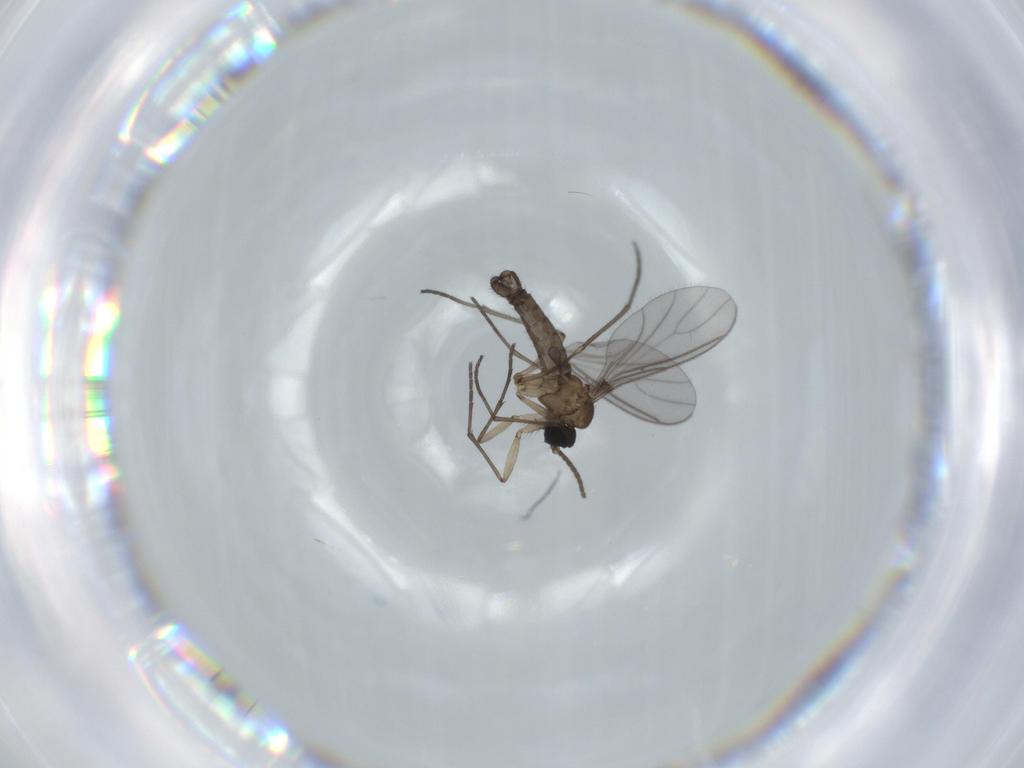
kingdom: Animalia
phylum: Arthropoda
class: Insecta
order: Diptera
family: Sciaridae
